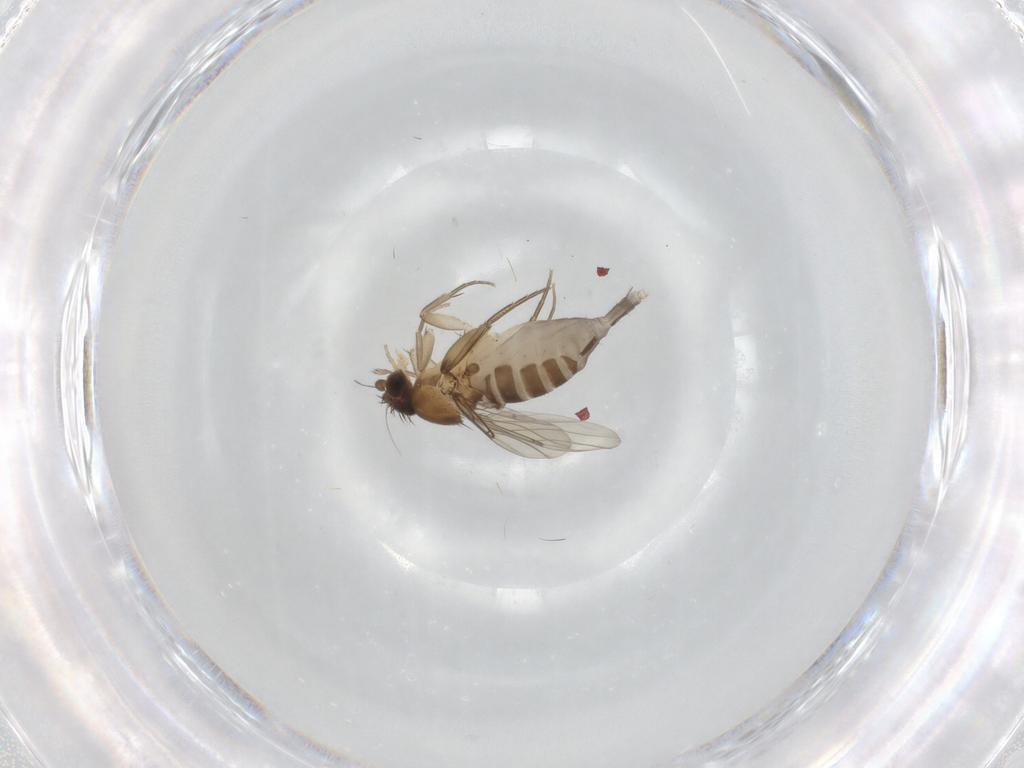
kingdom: Animalia
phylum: Arthropoda
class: Insecta
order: Diptera
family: Phoridae
